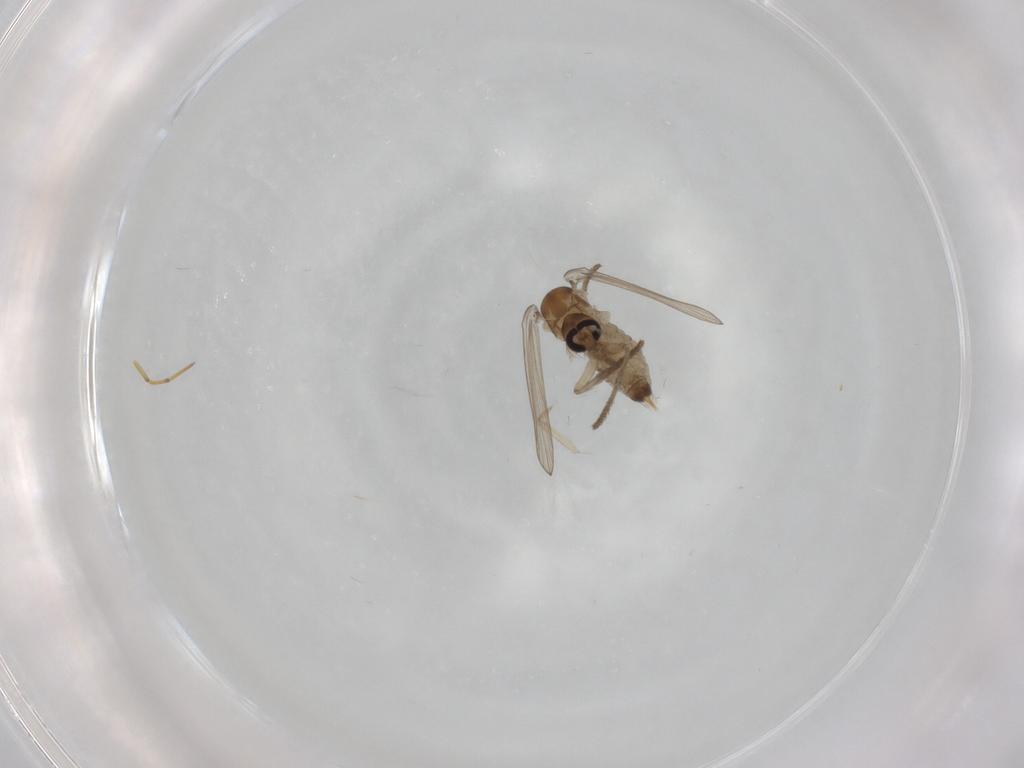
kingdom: Animalia
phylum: Arthropoda
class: Insecta
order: Diptera
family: Psychodidae
